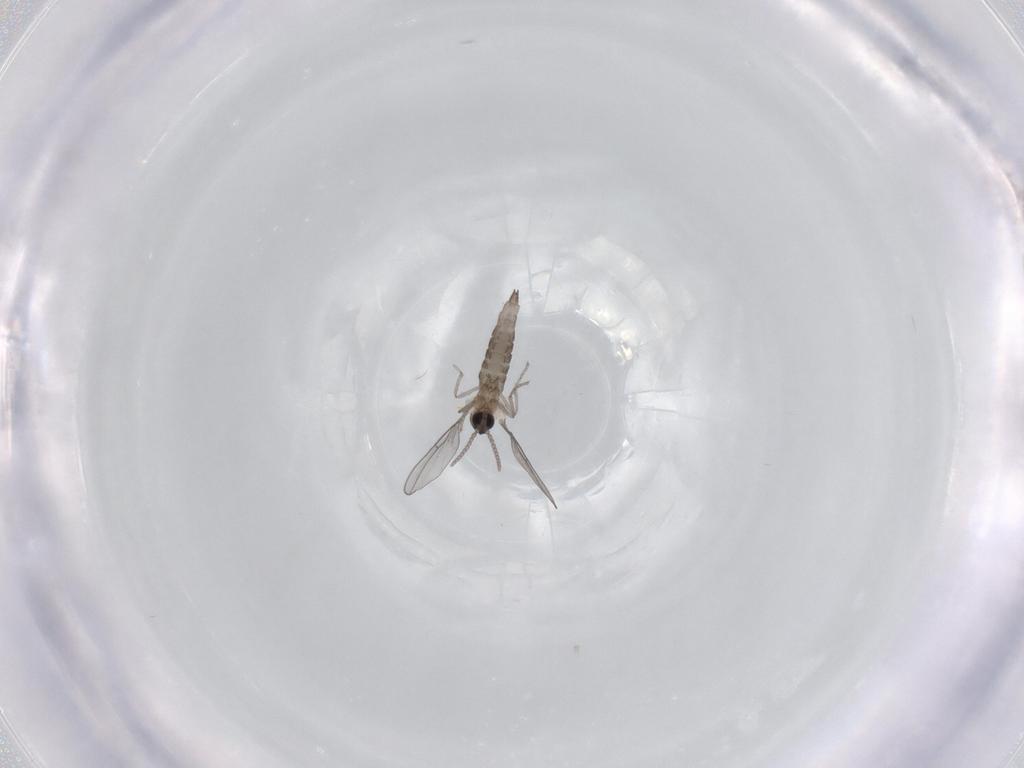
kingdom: Animalia
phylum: Arthropoda
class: Insecta
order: Diptera
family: Cecidomyiidae
